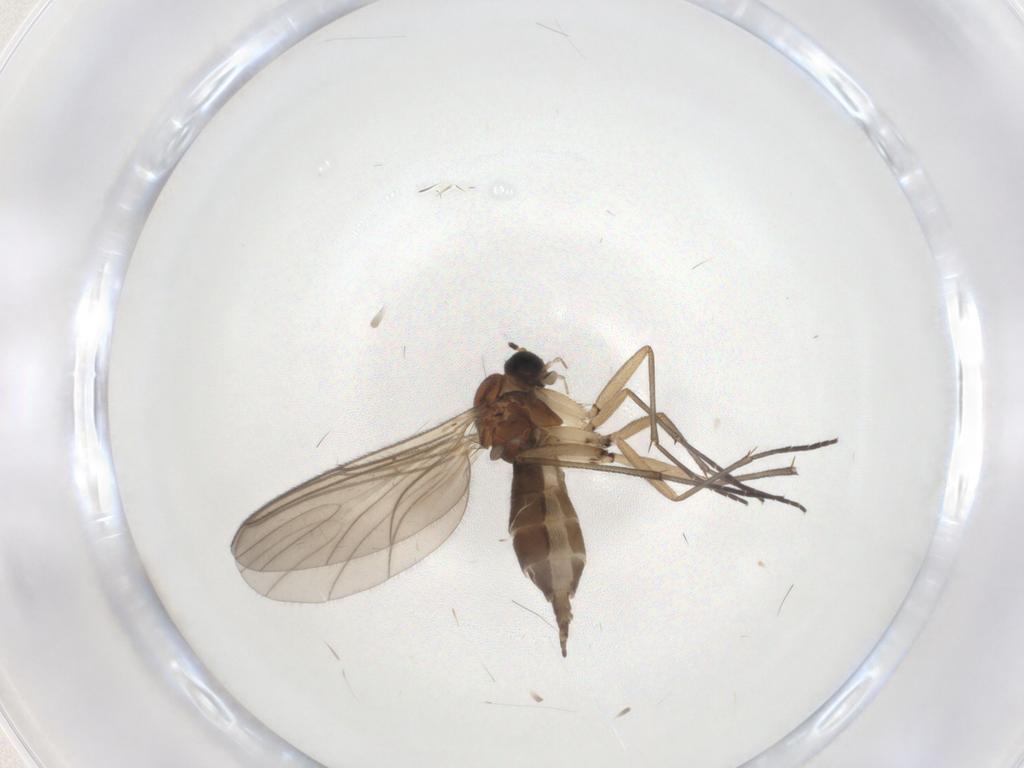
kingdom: Animalia
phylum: Arthropoda
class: Insecta
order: Diptera
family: Sciaridae
